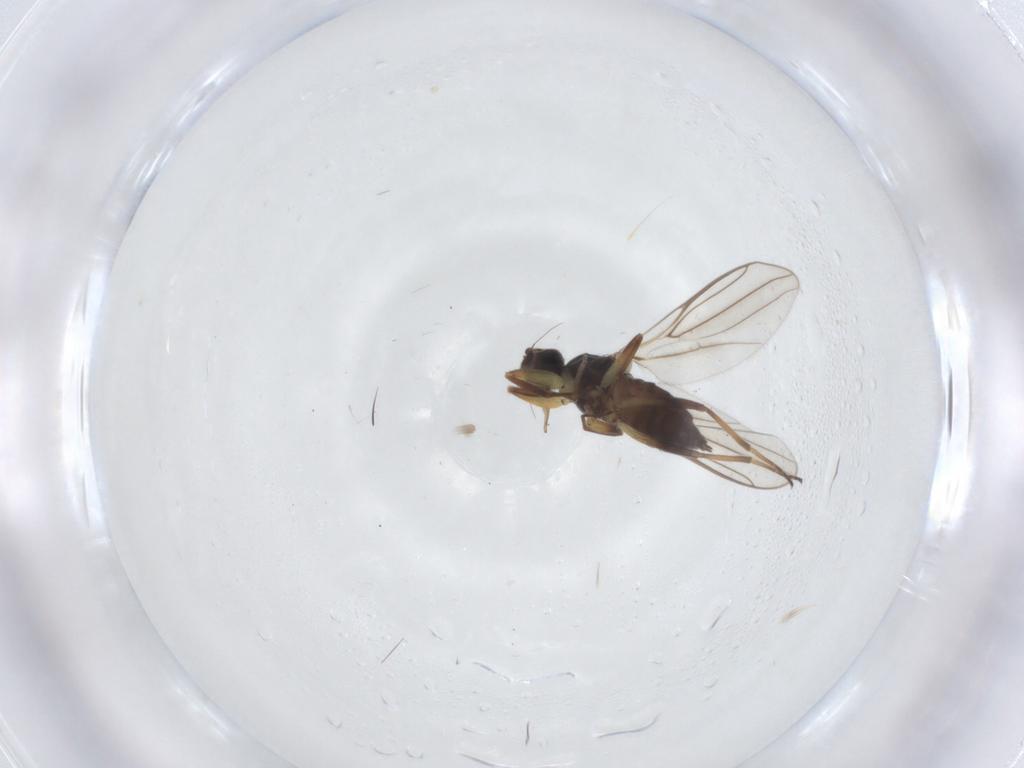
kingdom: Animalia
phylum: Arthropoda
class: Insecta
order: Diptera
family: Hybotidae
